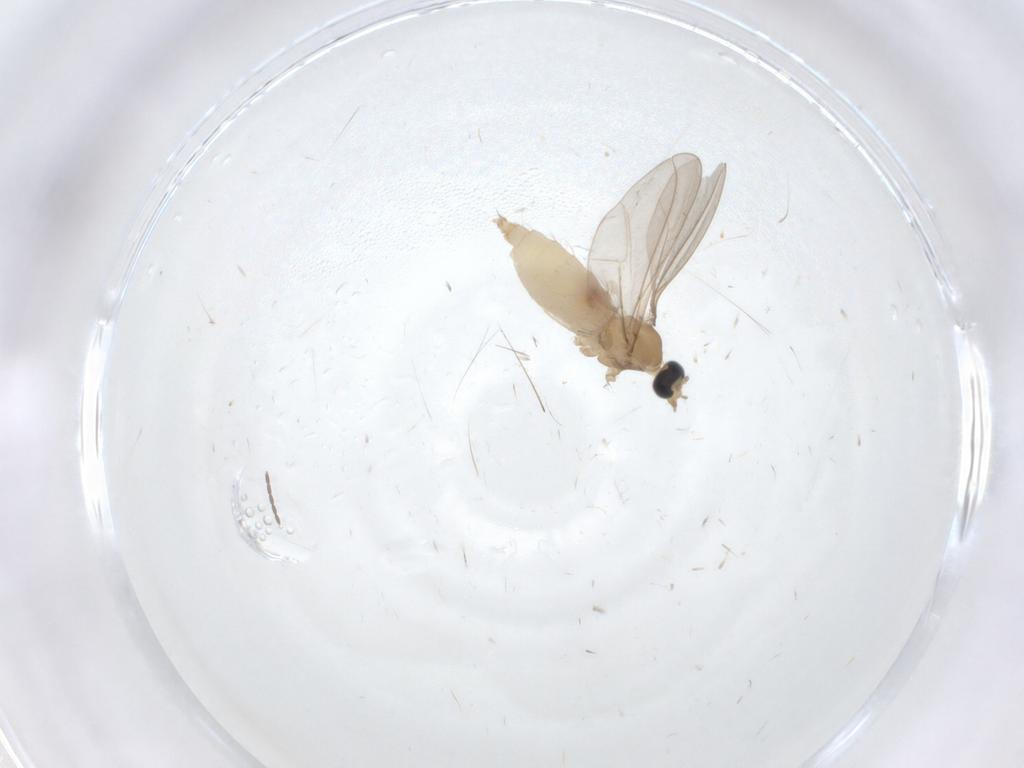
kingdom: Animalia
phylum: Arthropoda
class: Insecta
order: Diptera
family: Cecidomyiidae
